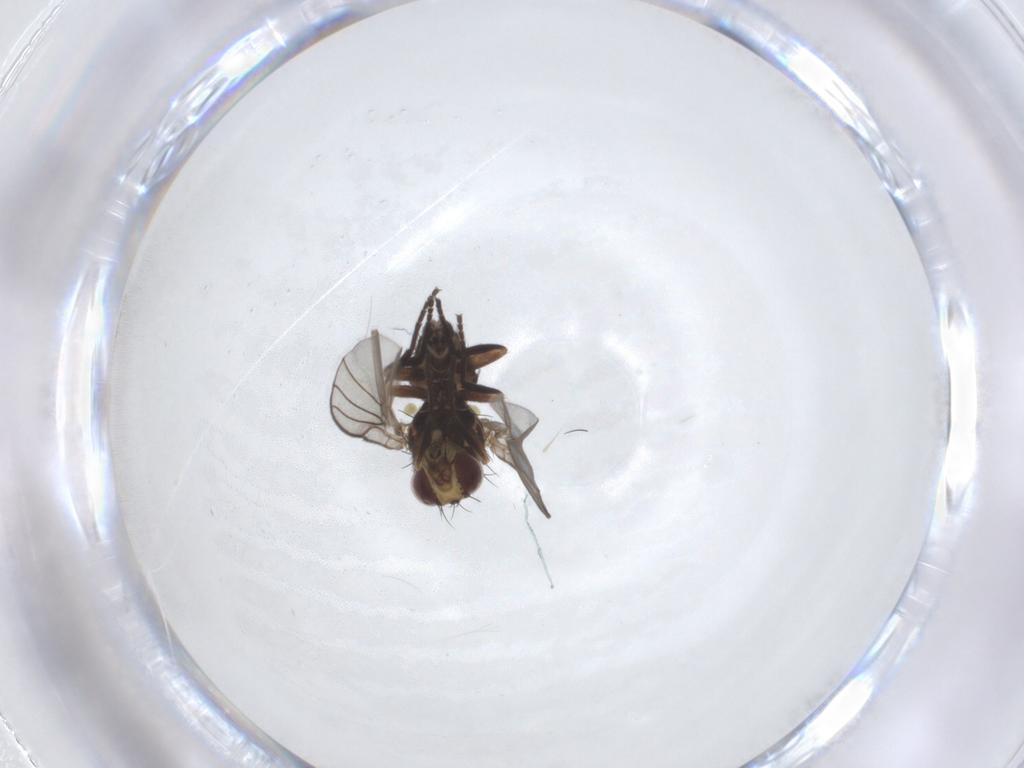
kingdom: Animalia
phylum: Arthropoda
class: Insecta
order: Diptera
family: Agromyzidae
